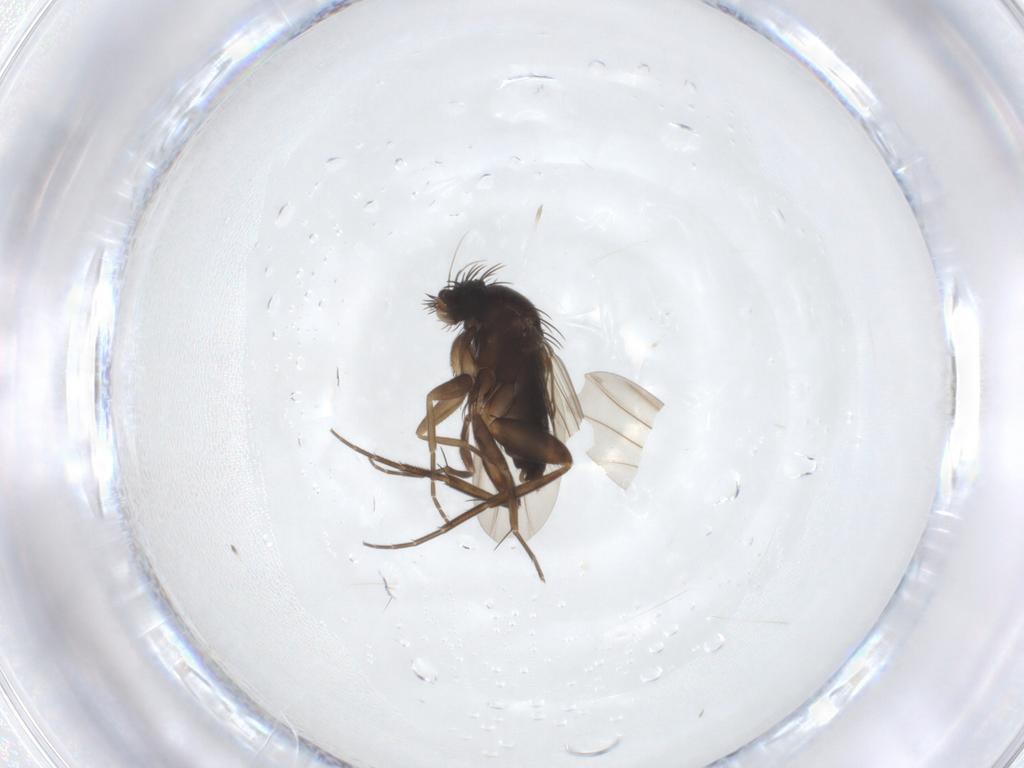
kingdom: Animalia
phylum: Arthropoda
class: Insecta
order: Diptera
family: Phoridae
